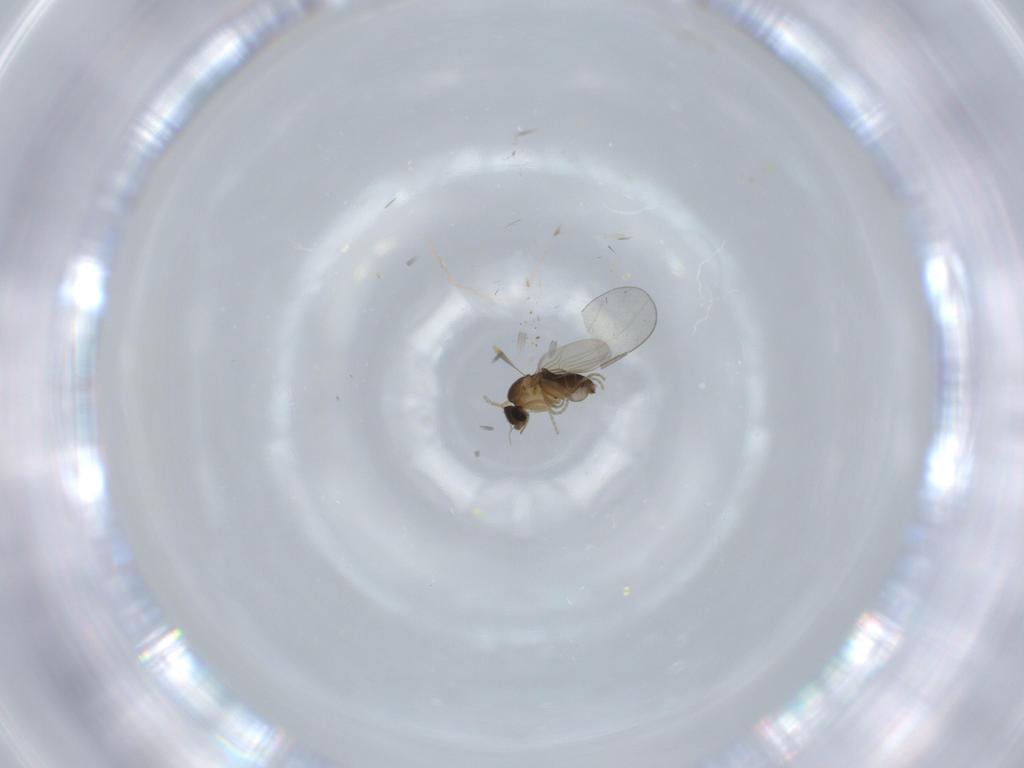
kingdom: Animalia
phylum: Arthropoda
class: Insecta
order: Diptera
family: Phoridae
